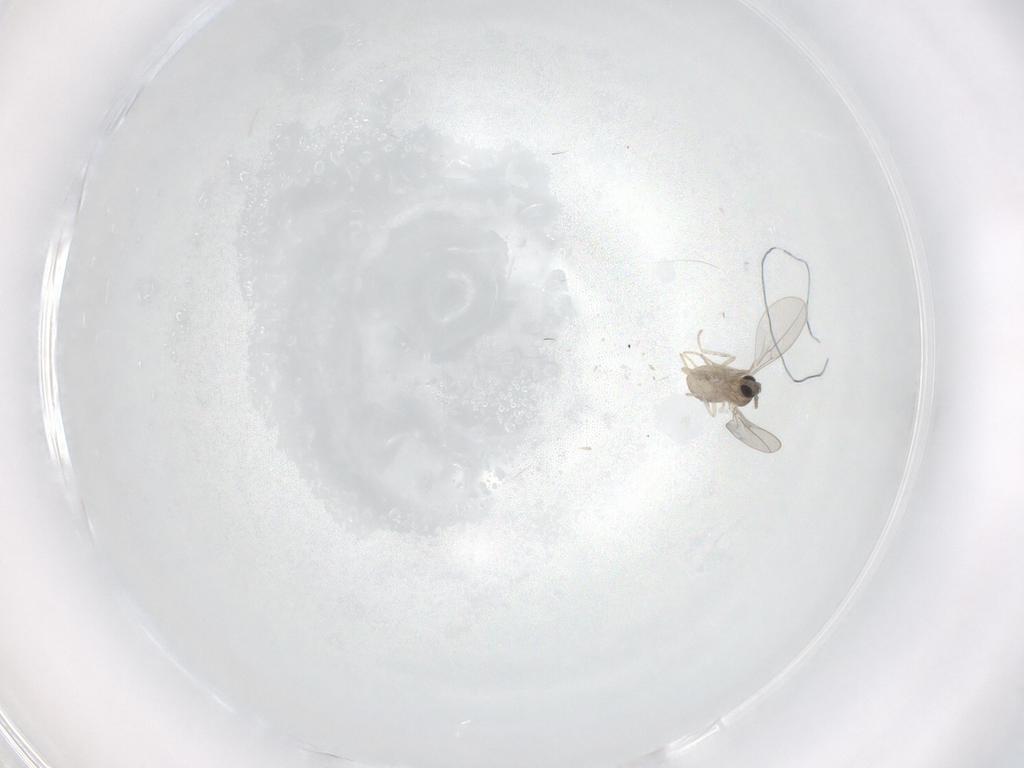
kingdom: Animalia
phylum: Arthropoda
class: Insecta
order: Diptera
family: Cecidomyiidae
